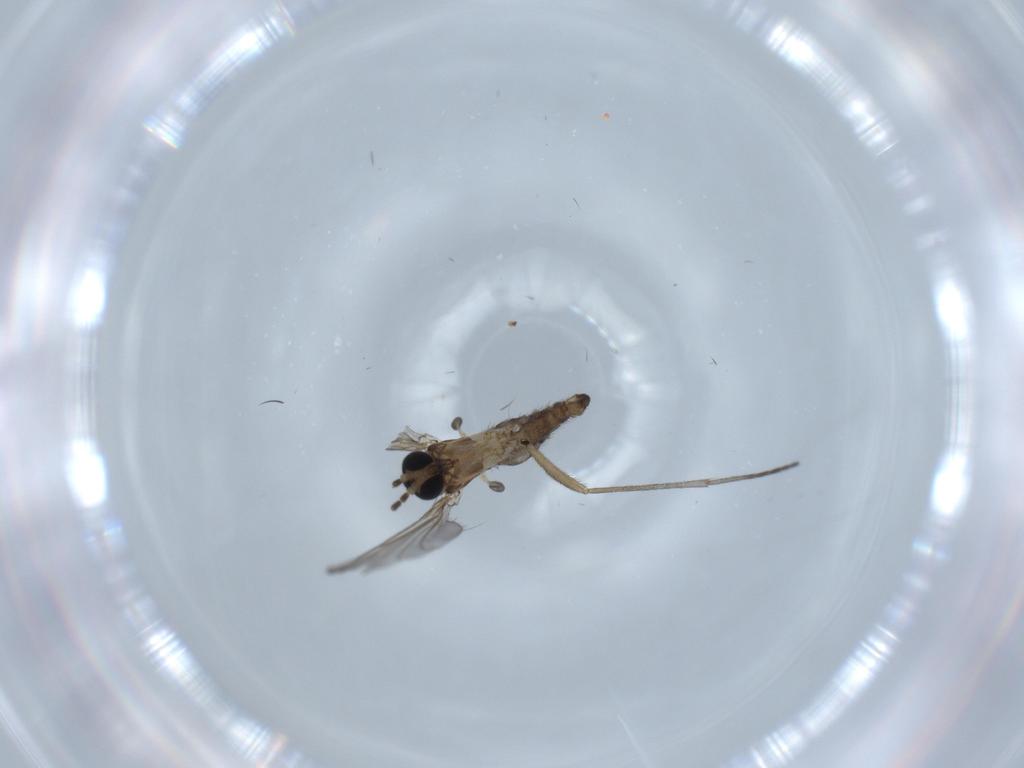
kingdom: Animalia
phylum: Arthropoda
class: Insecta
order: Diptera
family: Sciaridae
